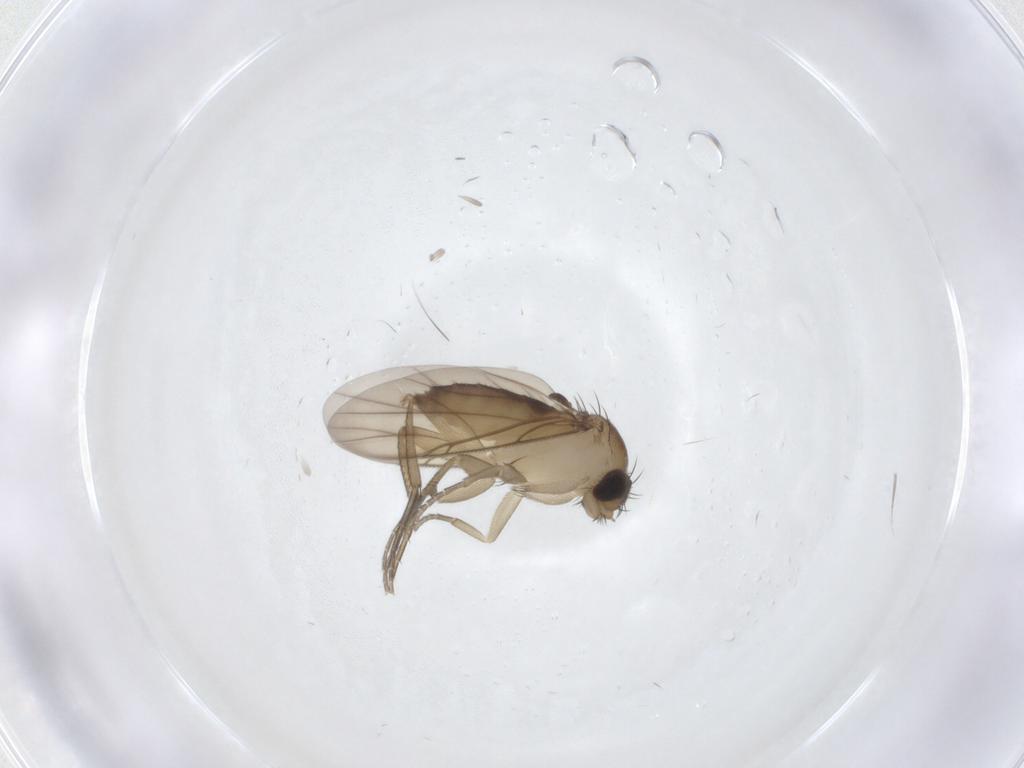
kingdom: Animalia
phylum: Arthropoda
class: Insecta
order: Diptera
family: Phoridae
